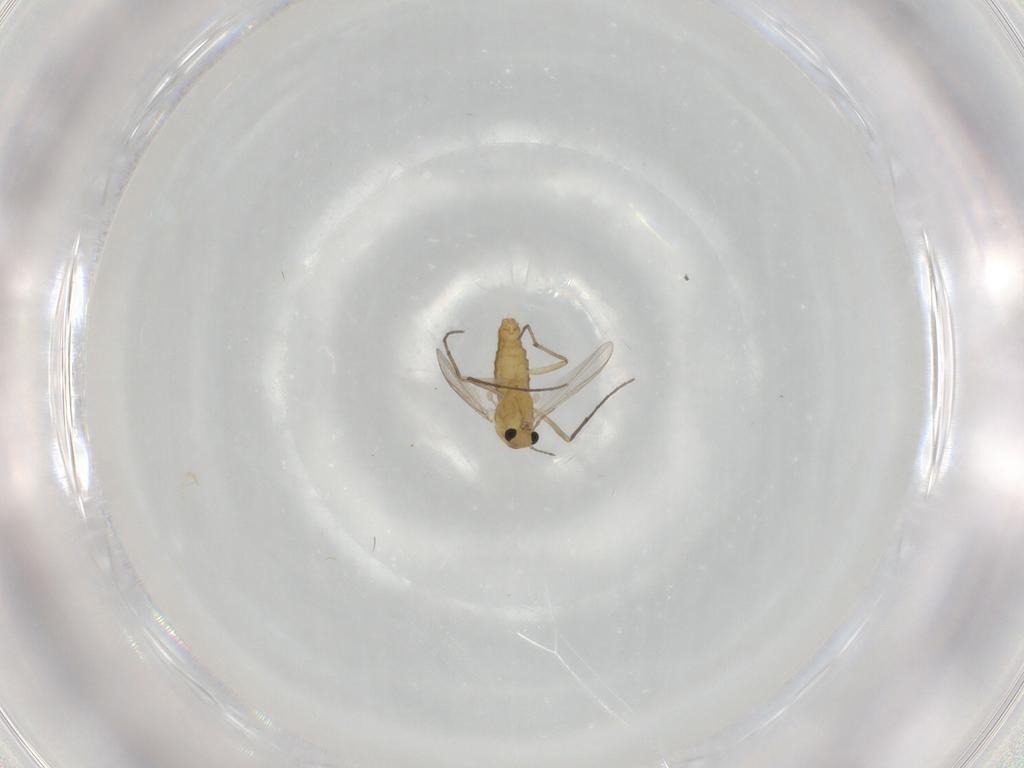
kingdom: Animalia
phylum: Arthropoda
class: Insecta
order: Diptera
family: Chironomidae
